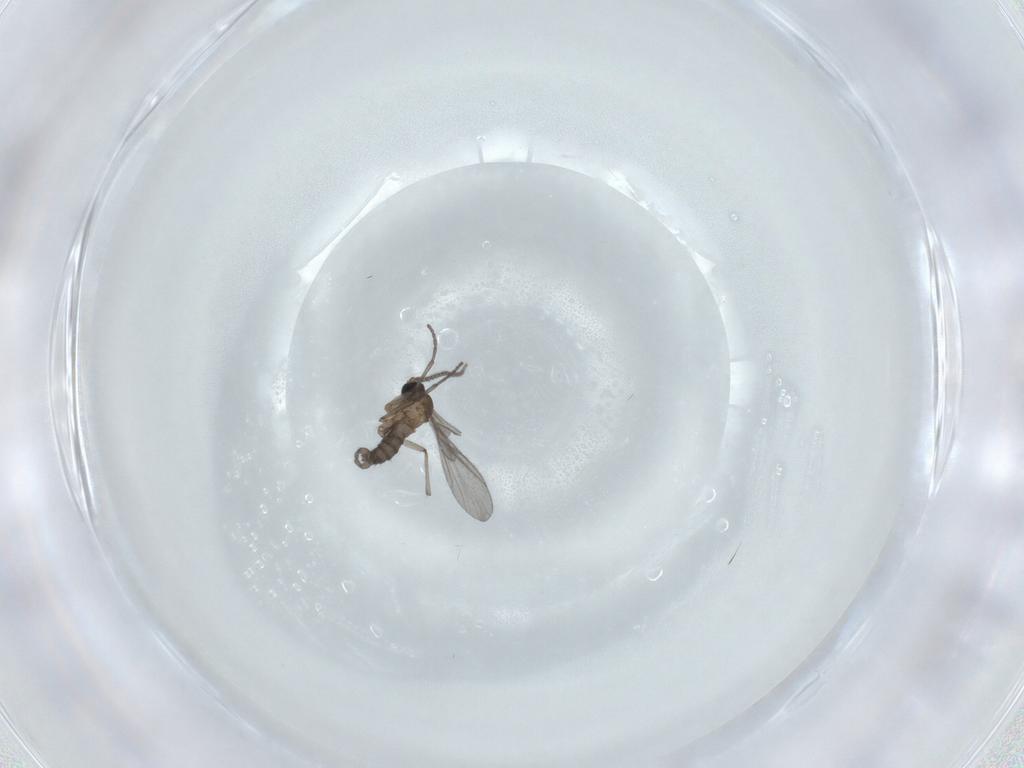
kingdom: Animalia
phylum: Arthropoda
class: Insecta
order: Diptera
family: Sciaridae
